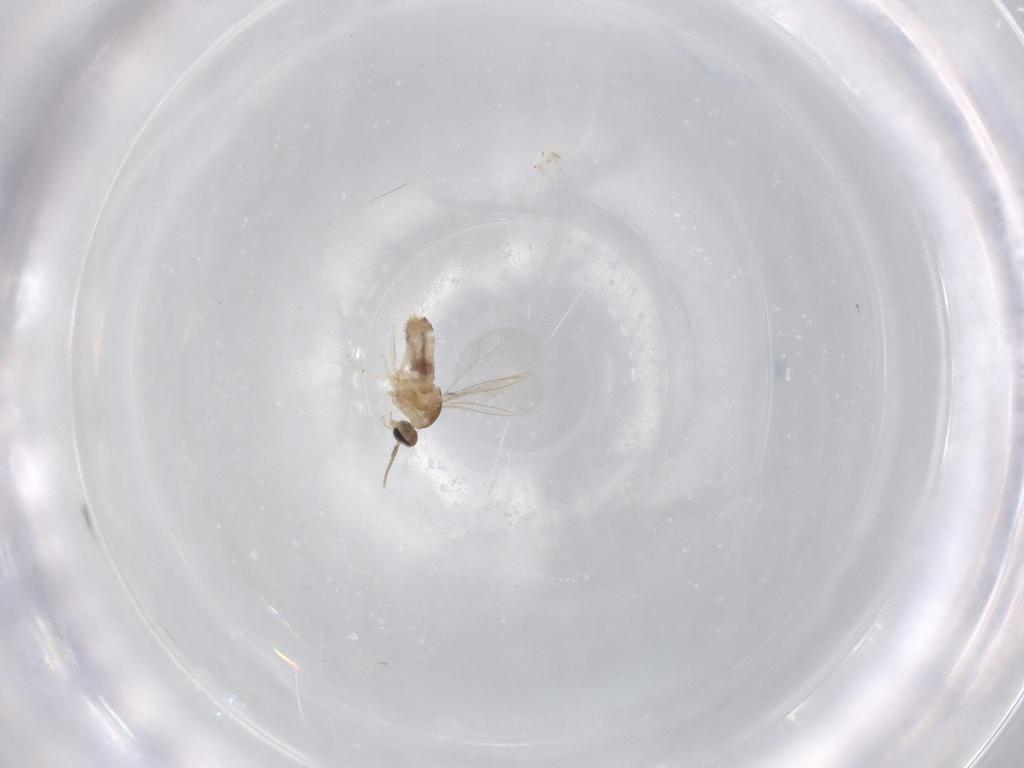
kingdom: Animalia
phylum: Arthropoda
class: Insecta
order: Diptera
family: Cecidomyiidae
